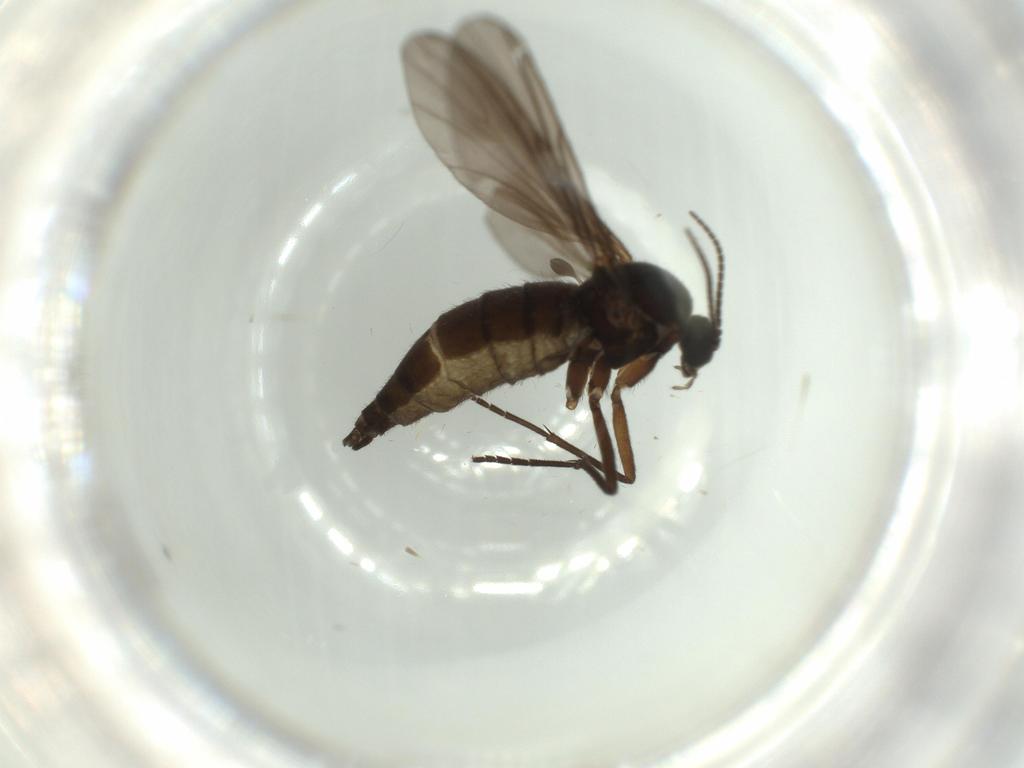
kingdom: Animalia
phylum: Arthropoda
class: Insecta
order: Diptera
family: Sciaridae
